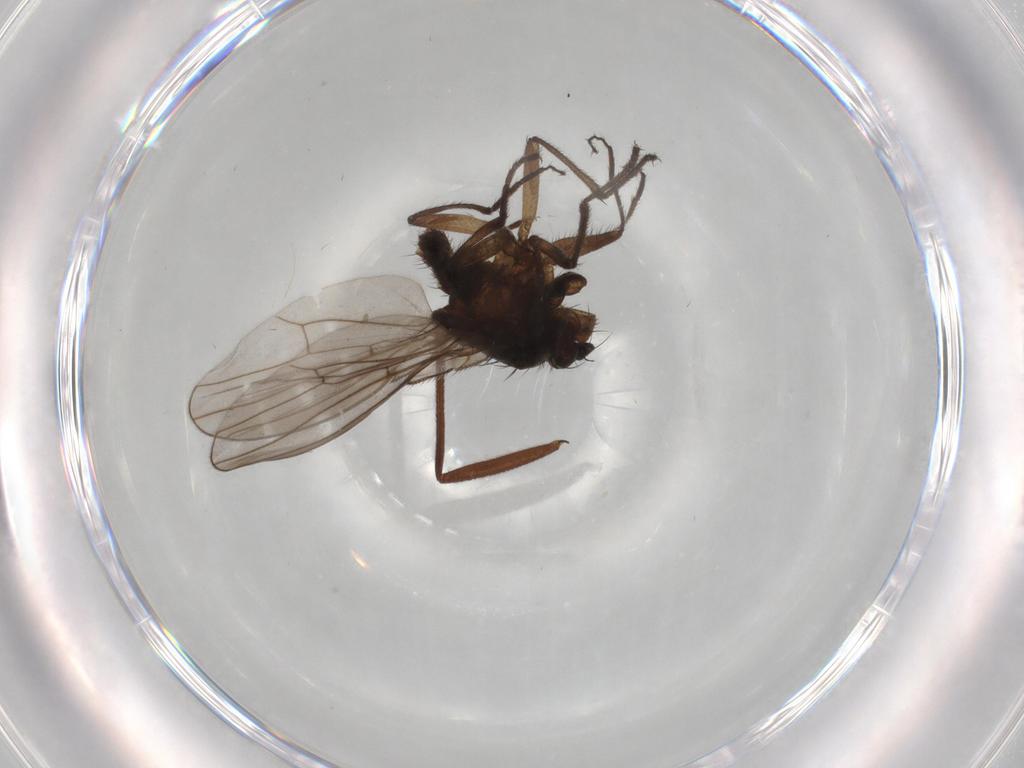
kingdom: Animalia
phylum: Arthropoda
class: Insecta
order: Diptera
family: Ephydridae
